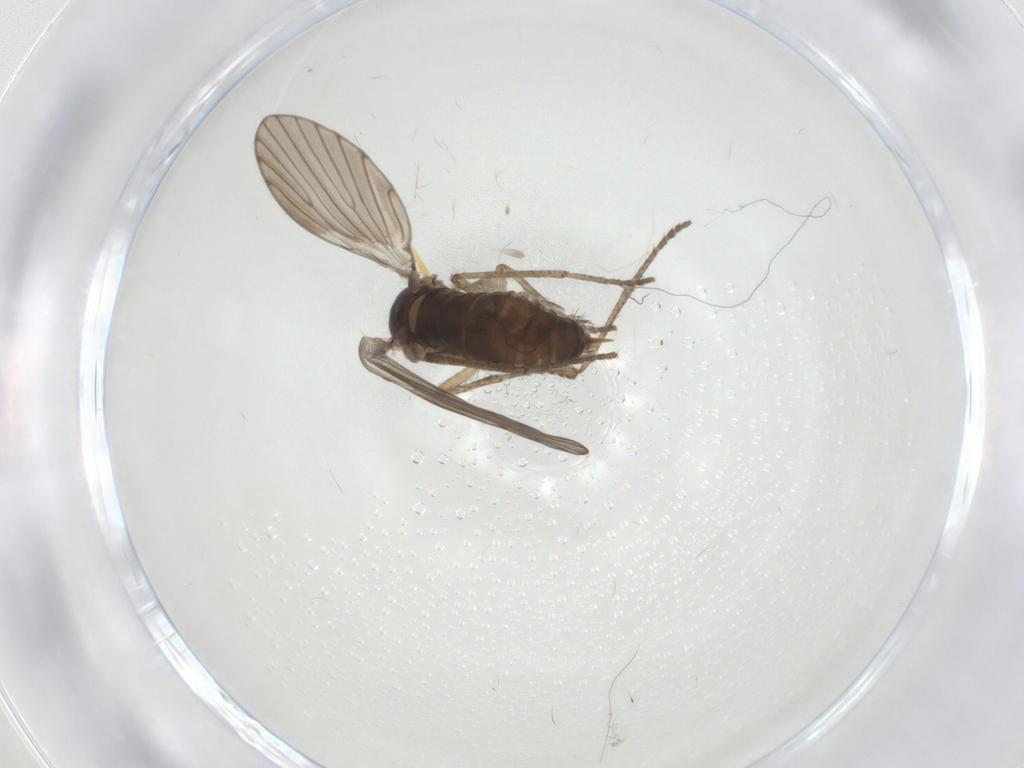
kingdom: Animalia
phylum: Arthropoda
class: Insecta
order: Diptera
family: Psychodidae
